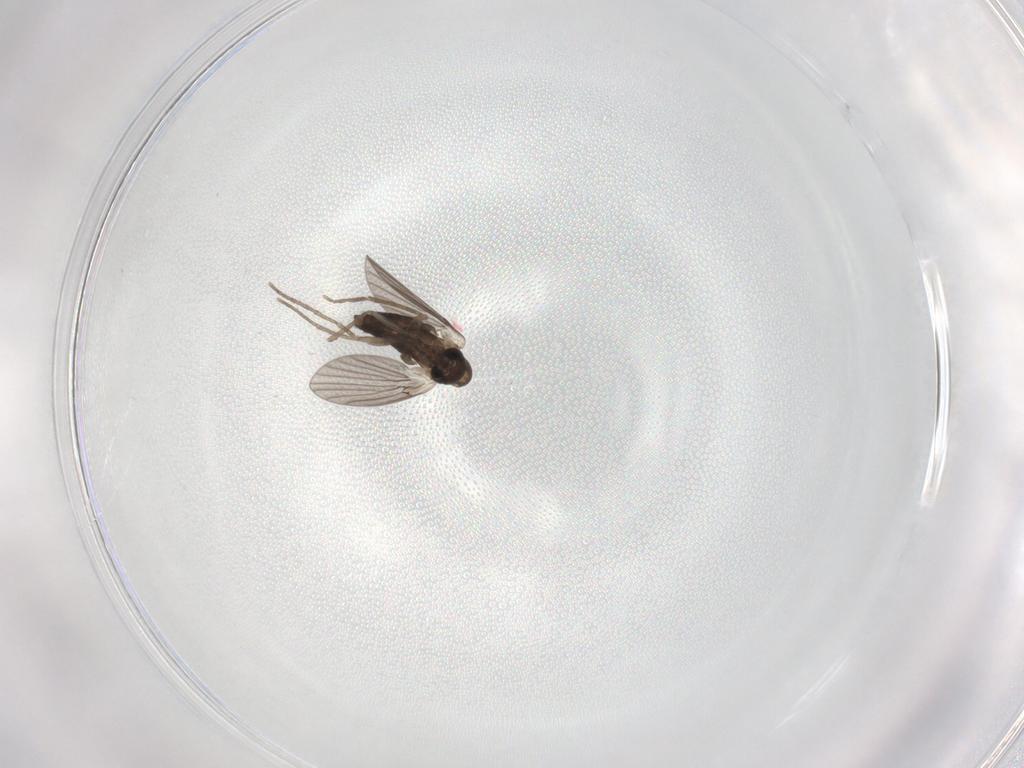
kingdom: Animalia
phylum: Arthropoda
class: Insecta
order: Diptera
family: Sciaridae
